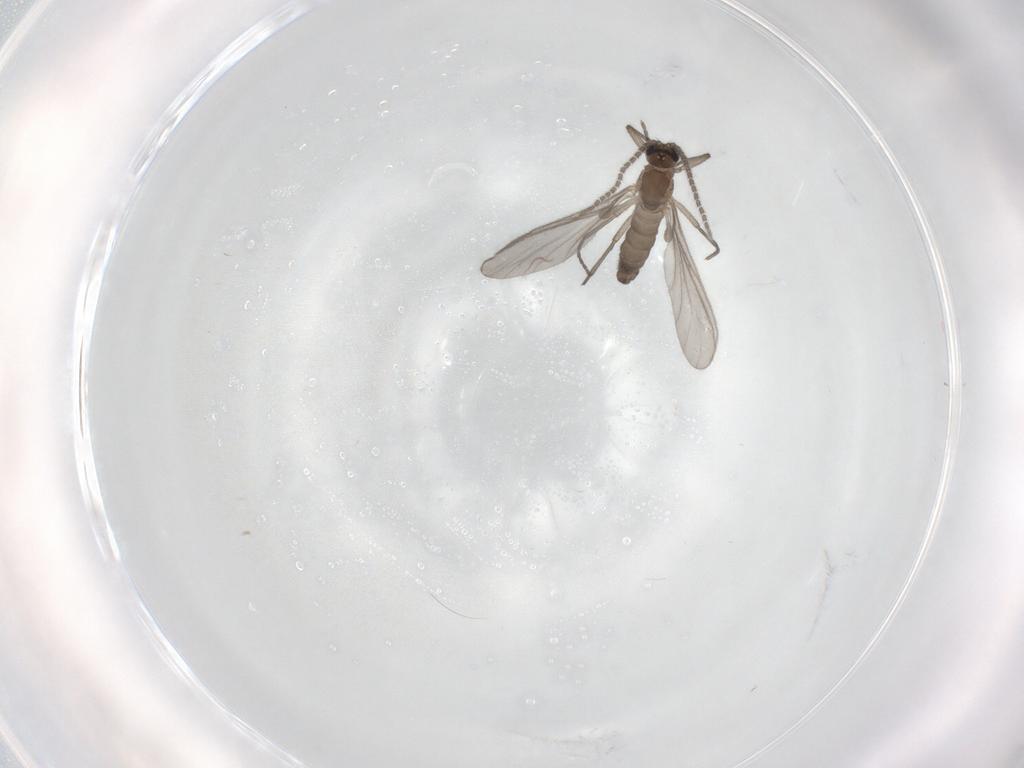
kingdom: Animalia
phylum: Arthropoda
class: Insecta
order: Diptera
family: Sciaridae
